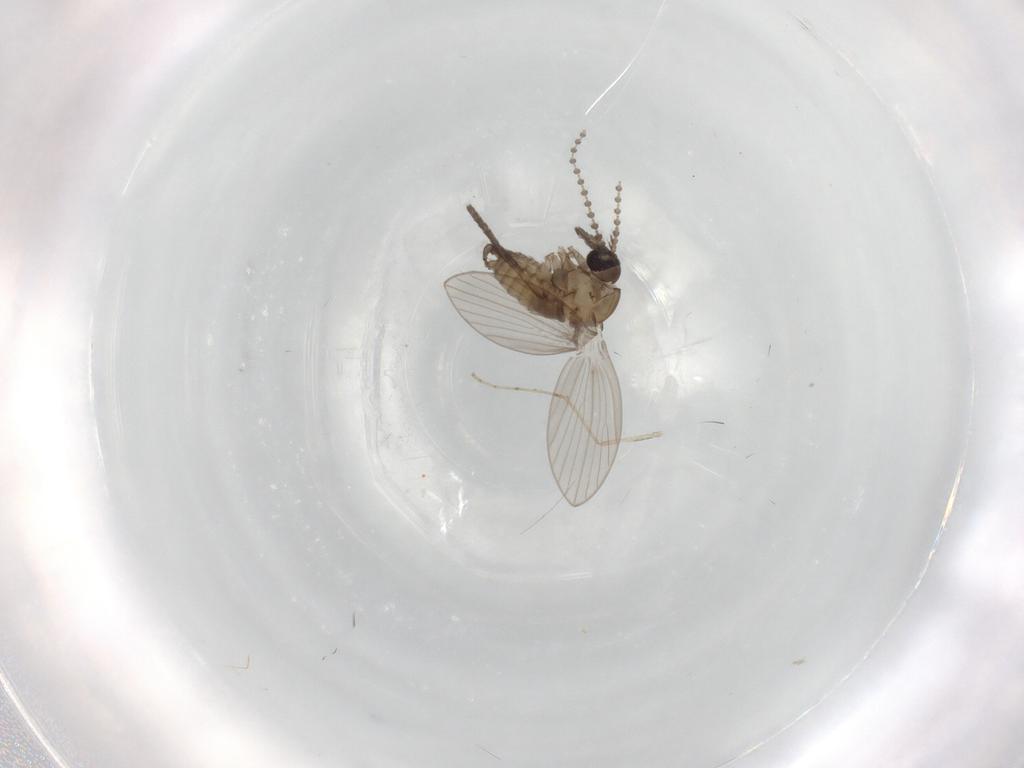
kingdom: Animalia
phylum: Arthropoda
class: Insecta
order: Diptera
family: Psychodidae
